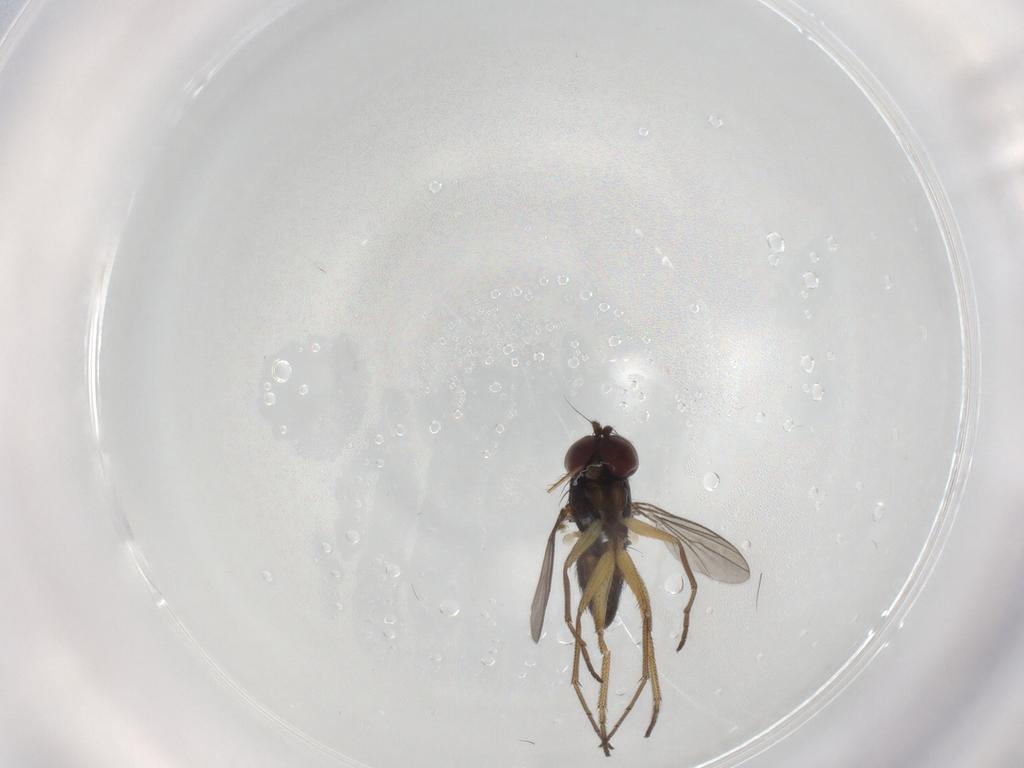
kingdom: Animalia
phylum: Arthropoda
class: Insecta
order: Diptera
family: Dolichopodidae
